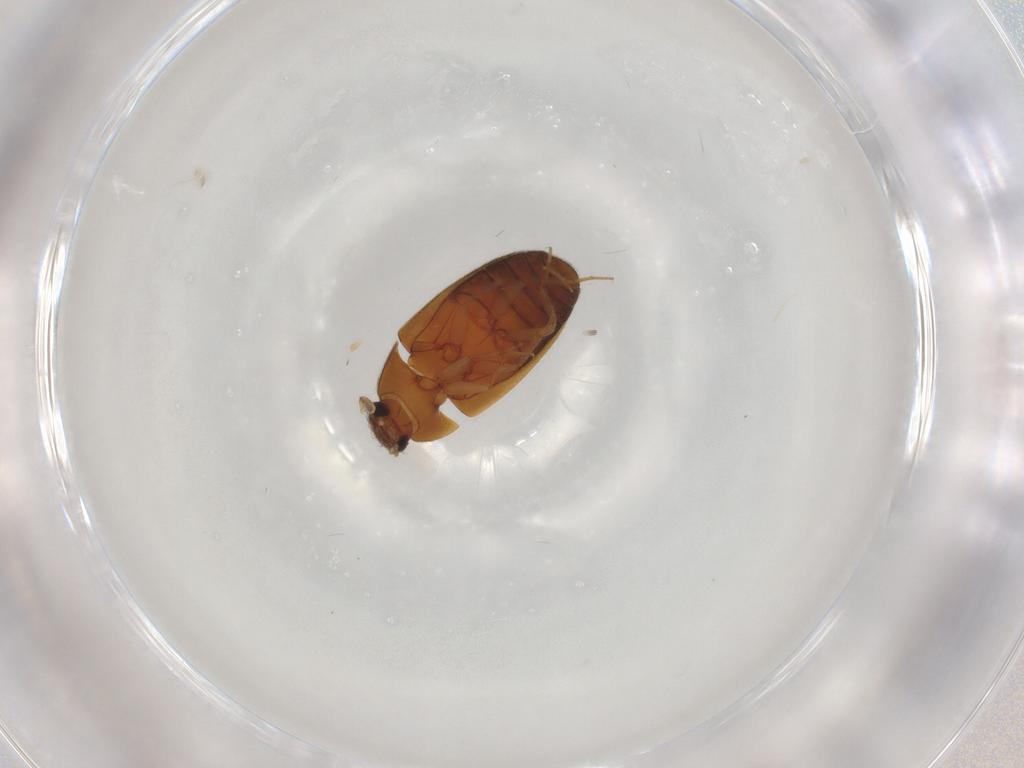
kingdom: Animalia
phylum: Arthropoda
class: Insecta
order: Coleoptera
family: Mycetophagidae
